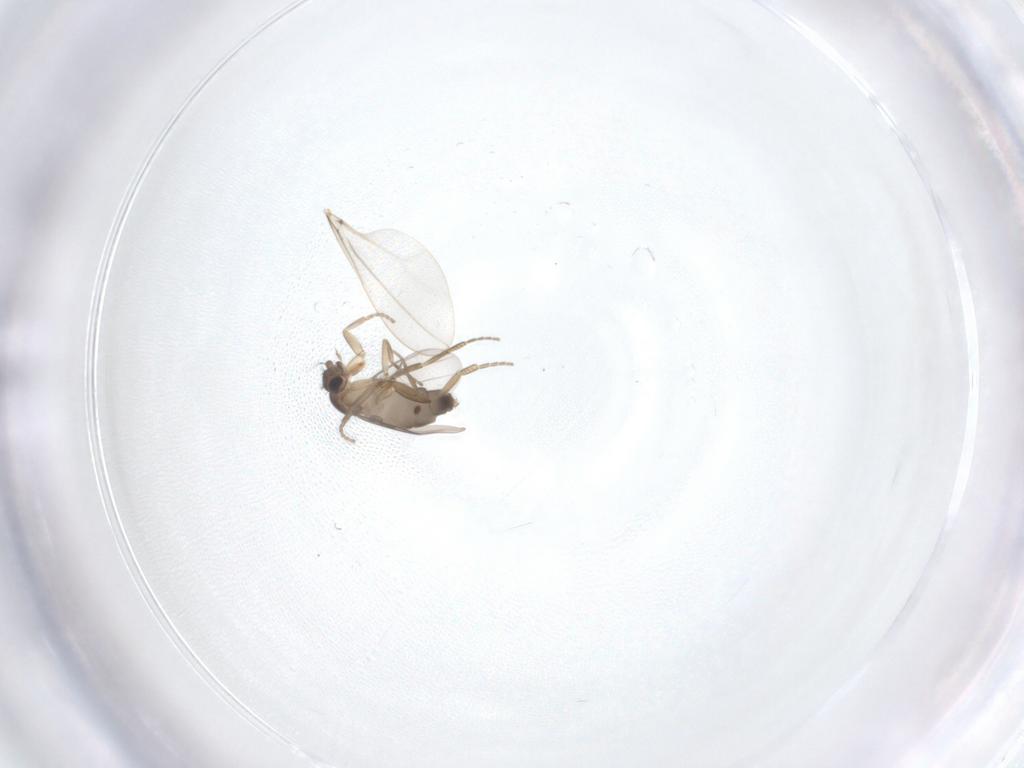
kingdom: Animalia
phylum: Arthropoda
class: Insecta
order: Diptera
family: Phoridae
